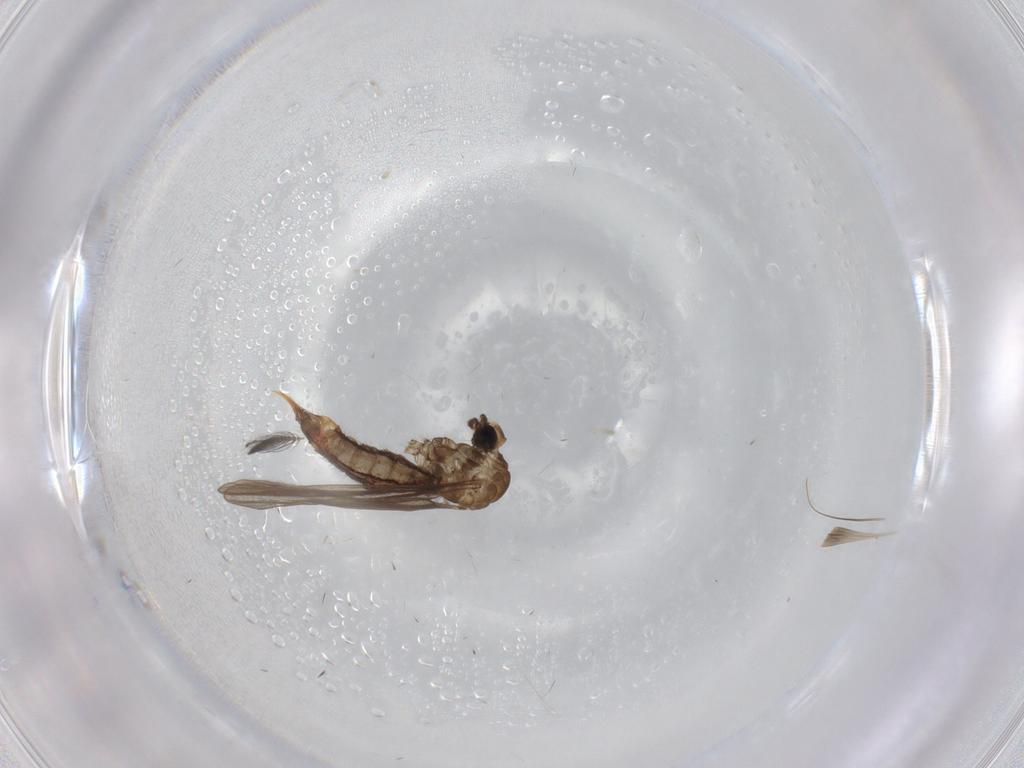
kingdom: Animalia
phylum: Arthropoda
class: Insecta
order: Diptera
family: Limoniidae
